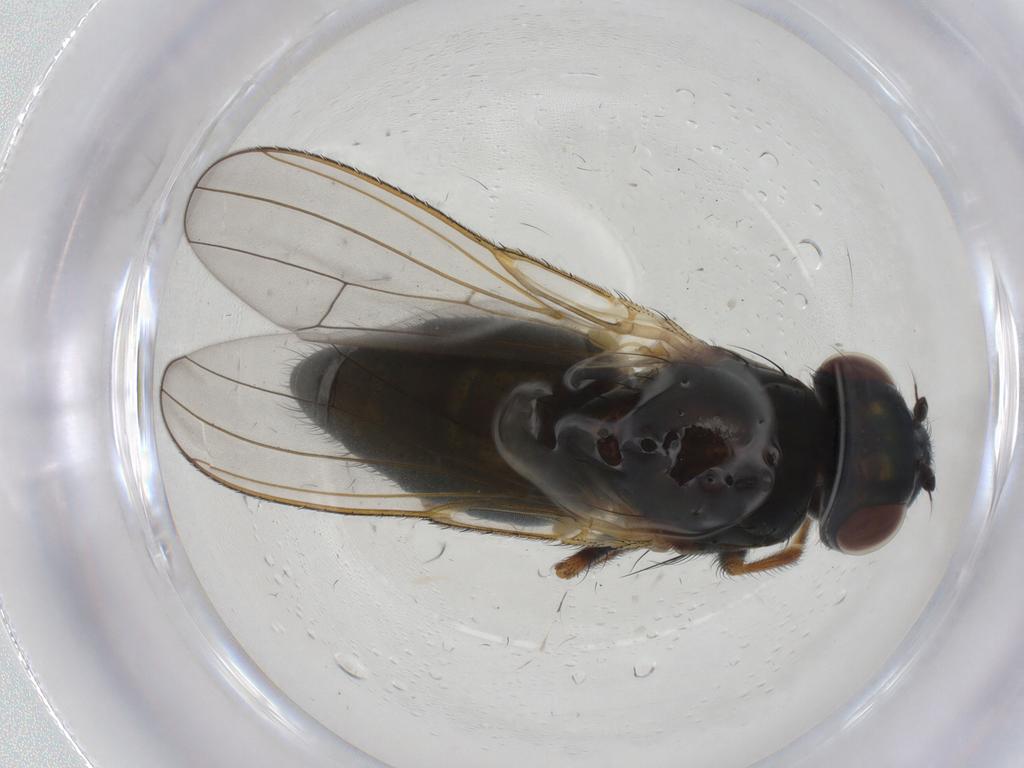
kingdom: Animalia
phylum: Arthropoda
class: Insecta
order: Diptera
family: Ephydridae
